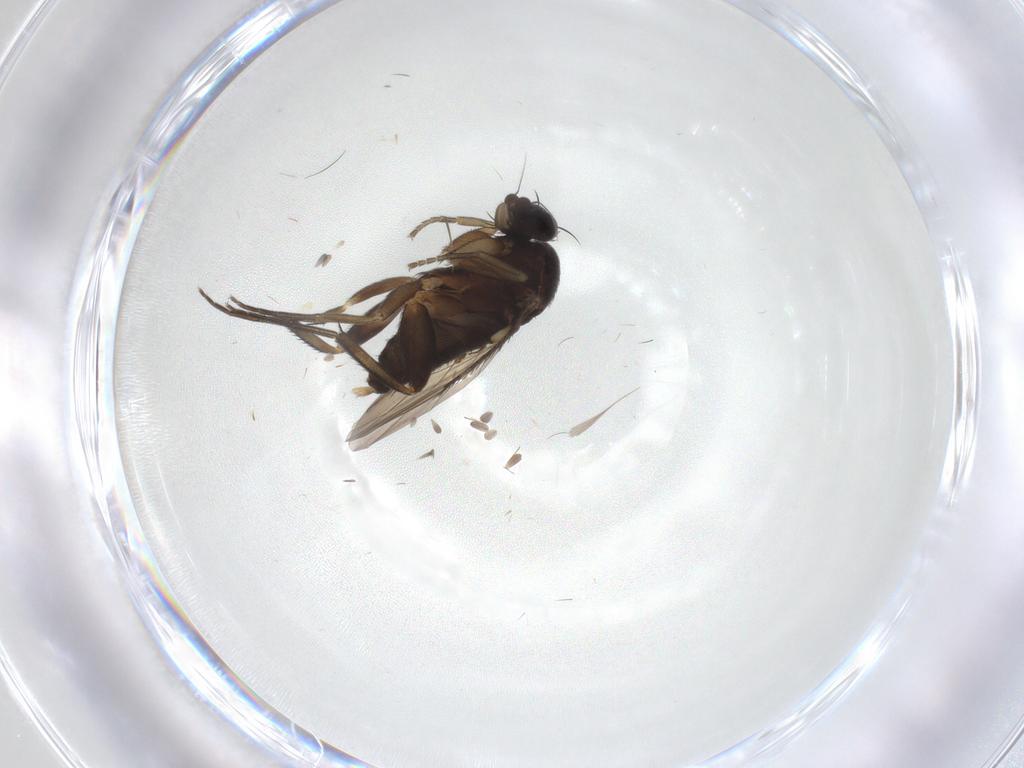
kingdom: Animalia
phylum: Arthropoda
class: Insecta
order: Diptera
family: Phoridae
